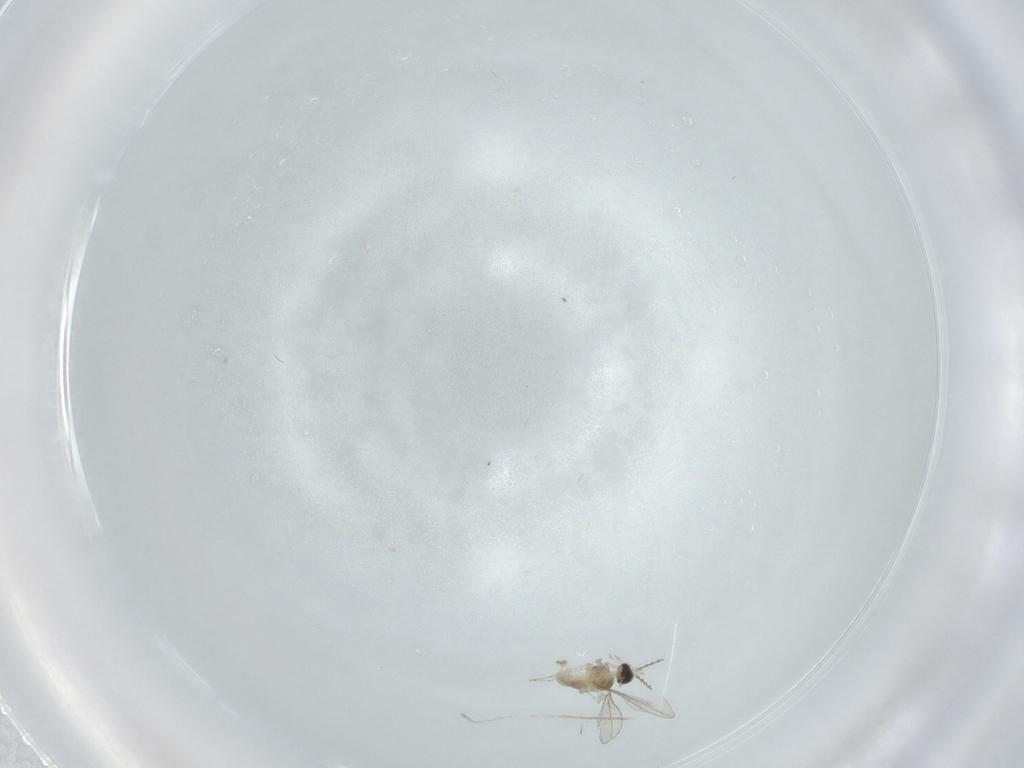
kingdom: Animalia
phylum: Arthropoda
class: Insecta
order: Diptera
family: Cecidomyiidae
